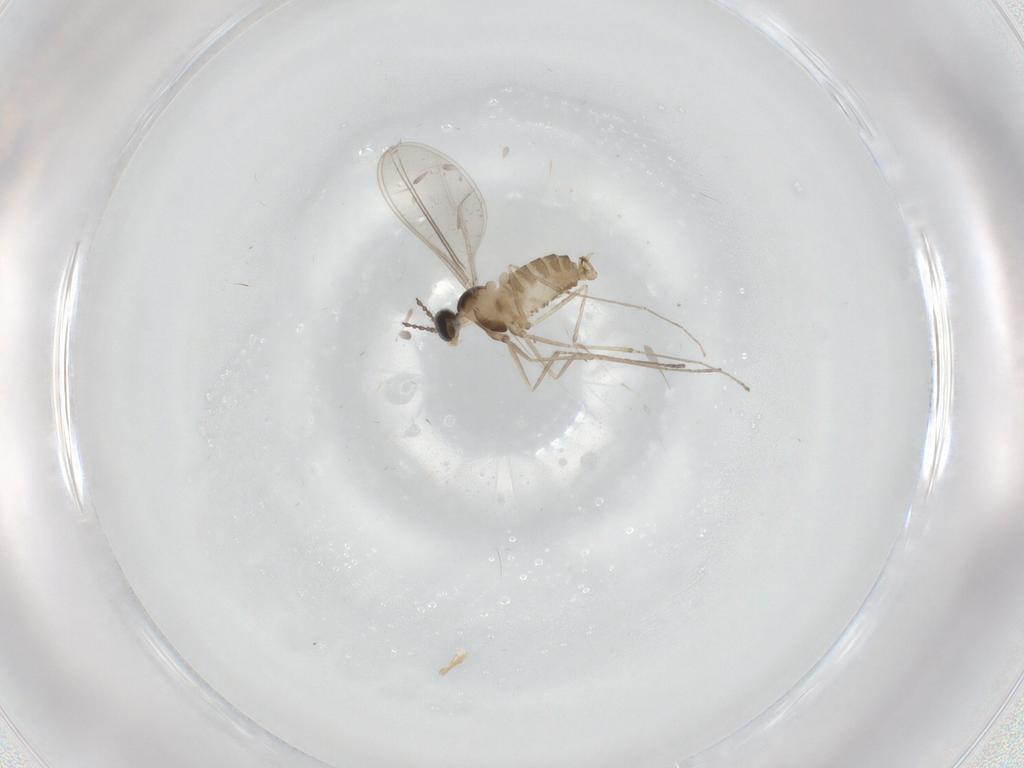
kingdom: Animalia
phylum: Arthropoda
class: Insecta
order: Diptera
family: Cecidomyiidae
